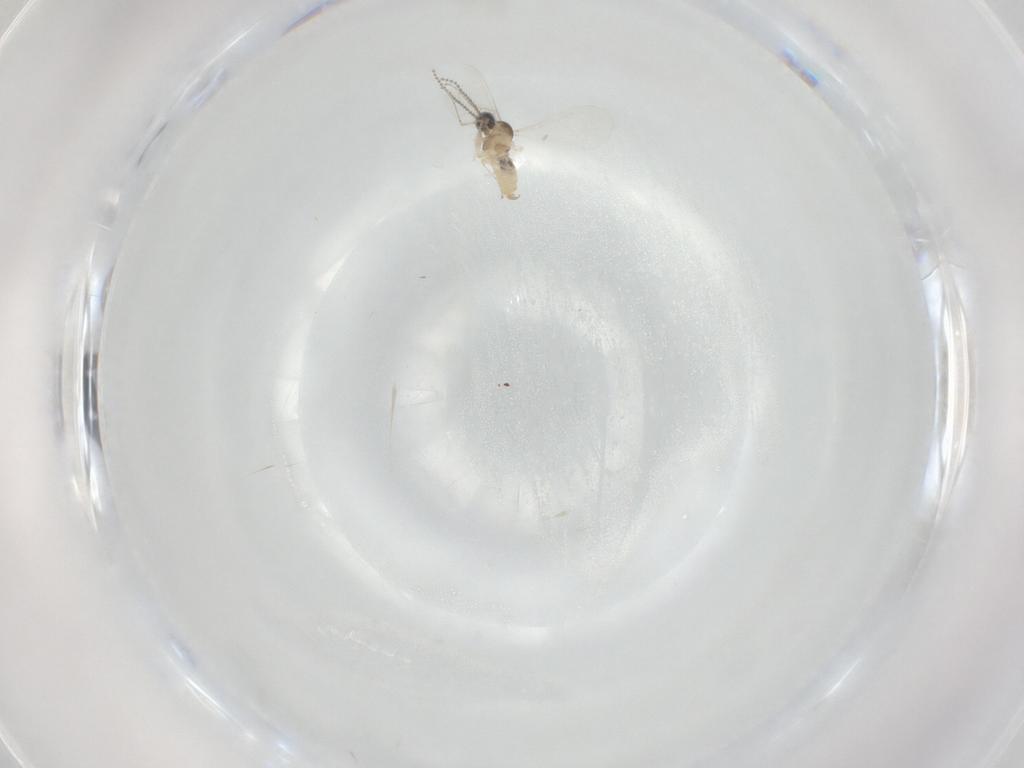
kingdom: Animalia
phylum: Arthropoda
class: Insecta
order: Diptera
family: Cecidomyiidae
